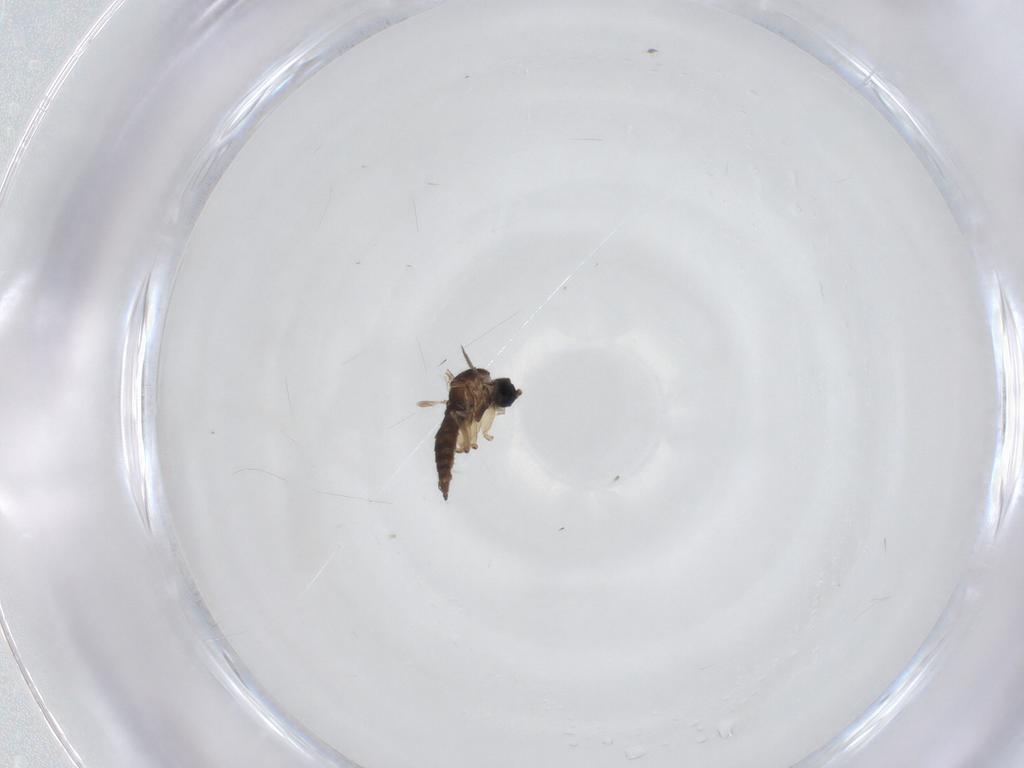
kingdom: Animalia
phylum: Arthropoda
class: Insecta
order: Diptera
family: Sciaridae
